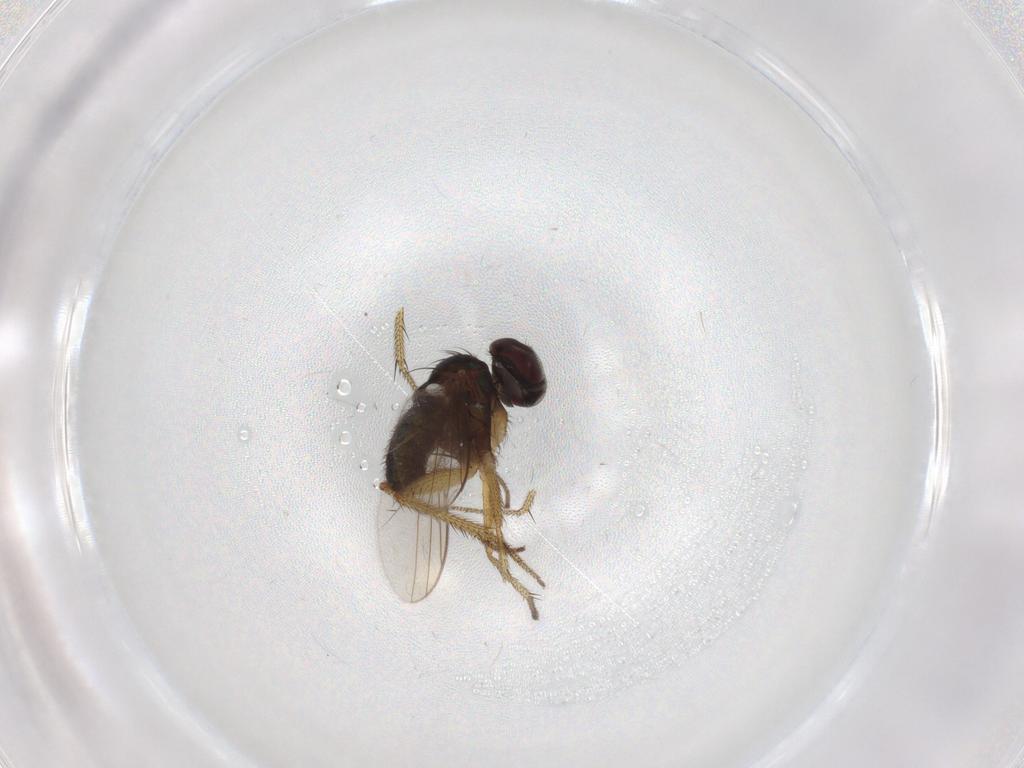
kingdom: Animalia
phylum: Arthropoda
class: Insecta
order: Diptera
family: Dolichopodidae
